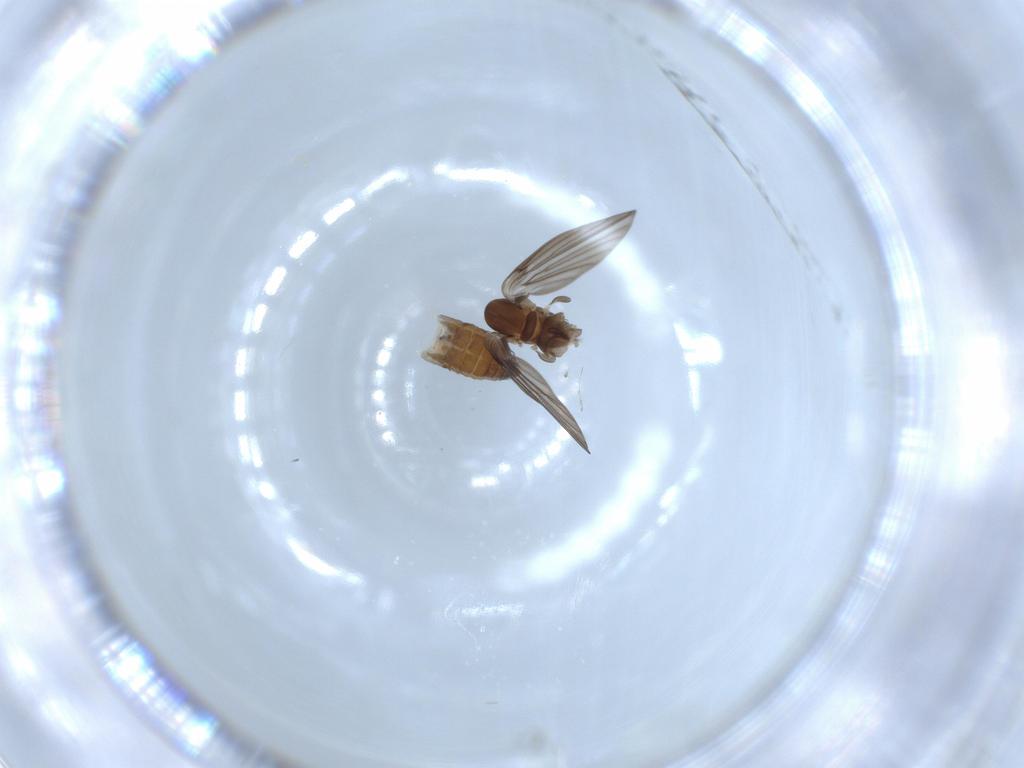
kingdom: Animalia
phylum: Arthropoda
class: Insecta
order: Diptera
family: Psychodidae
